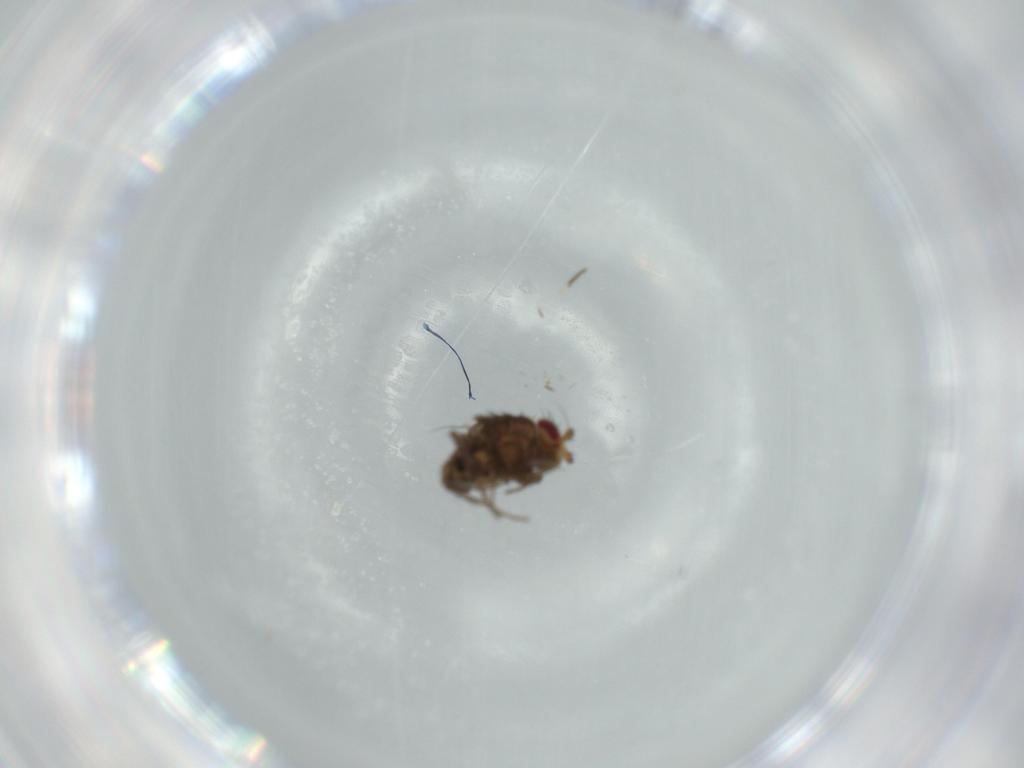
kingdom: Animalia
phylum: Arthropoda
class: Insecta
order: Diptera
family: Sphaeroceridae
